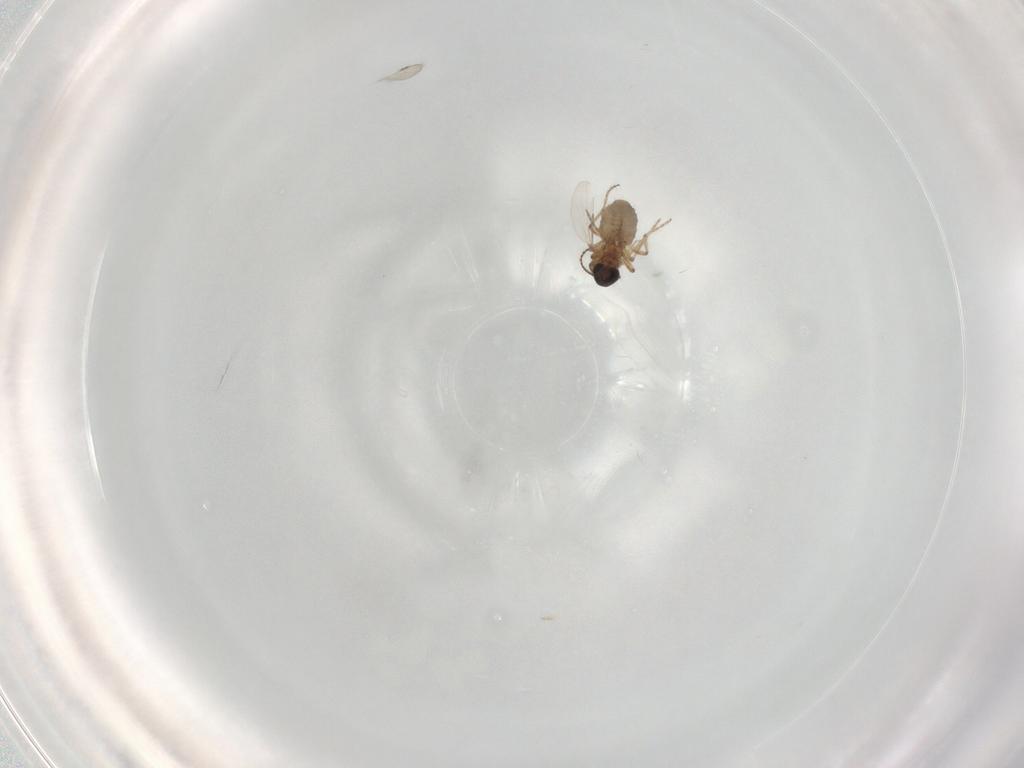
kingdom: Animalia
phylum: Arthropoda
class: Insecta
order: Diptera
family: Ceratopogonidae
